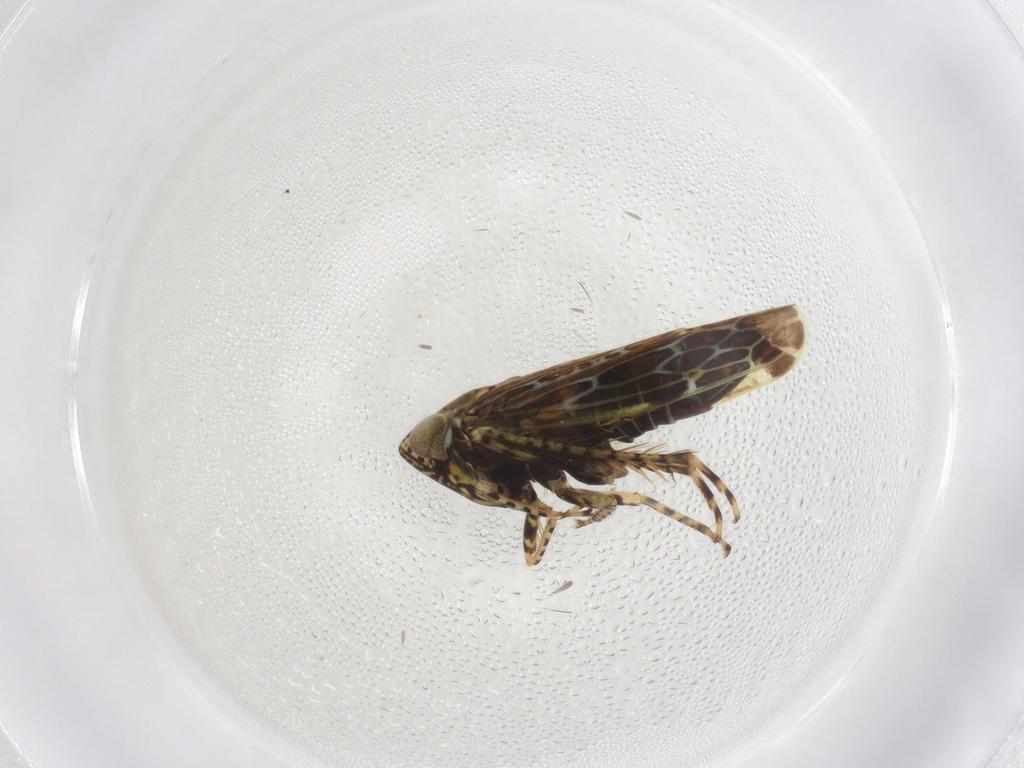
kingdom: Animalia
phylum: Arthropoda
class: Insecta
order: Hemiptera
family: Cicadellidae
